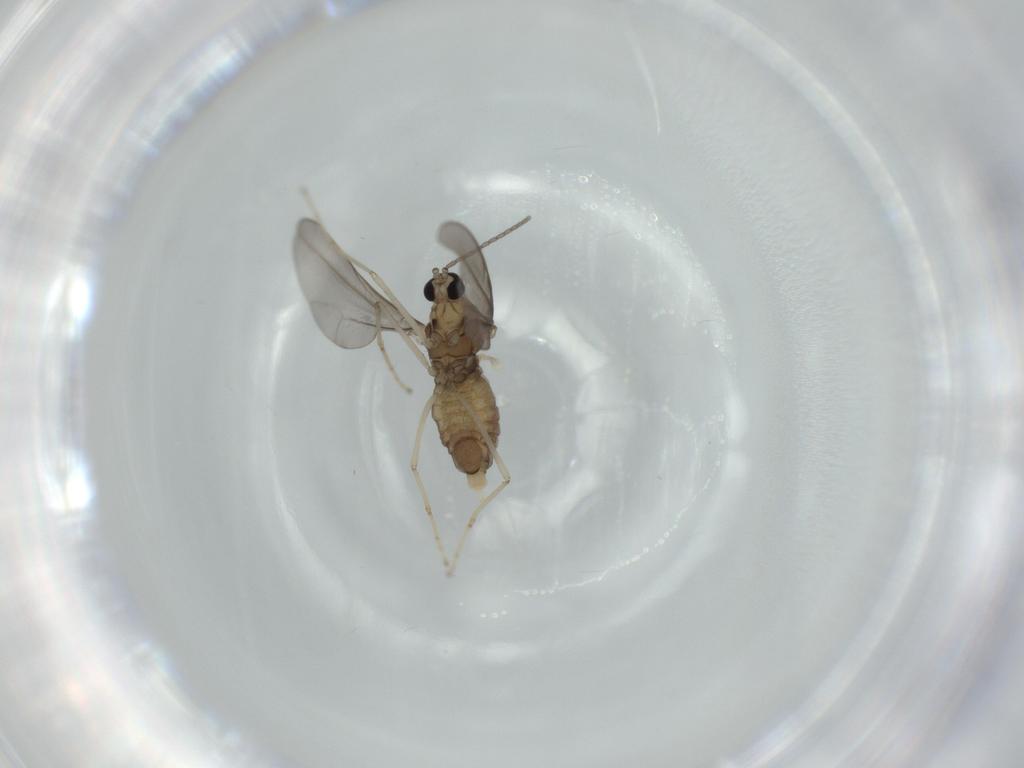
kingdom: Animalia
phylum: Arthropoda
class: Insecta
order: Diptera
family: Cecidomyiidae
